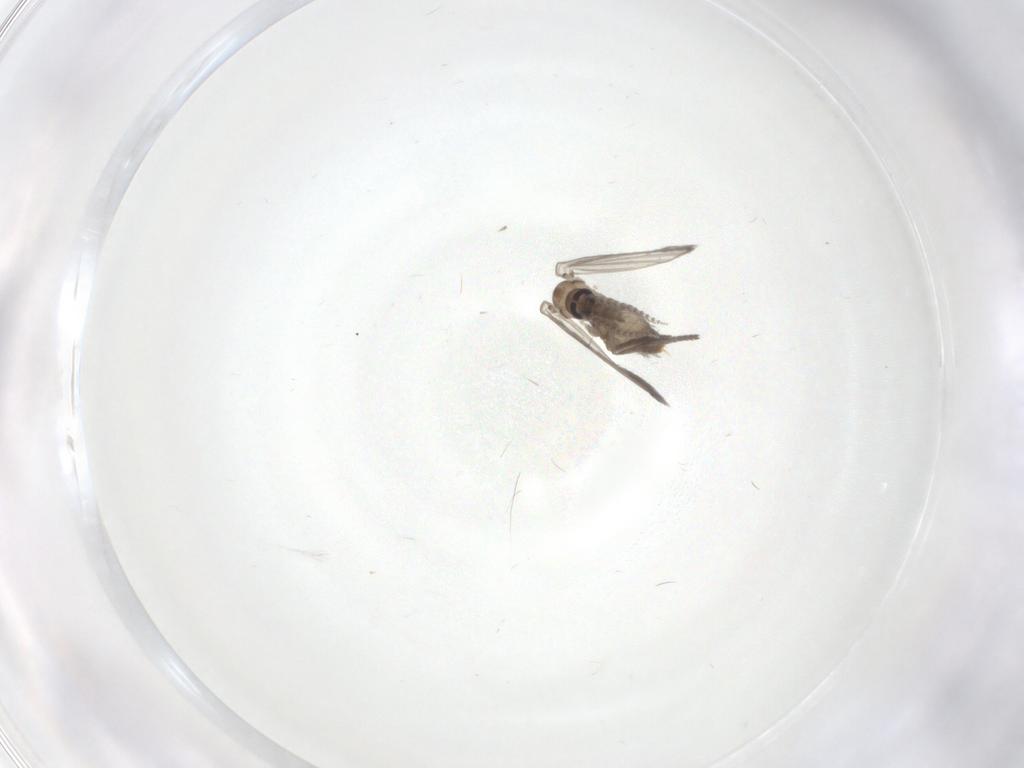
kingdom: Animalia
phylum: Arthropoda
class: Insecta
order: Diptera
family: Psychodidae
